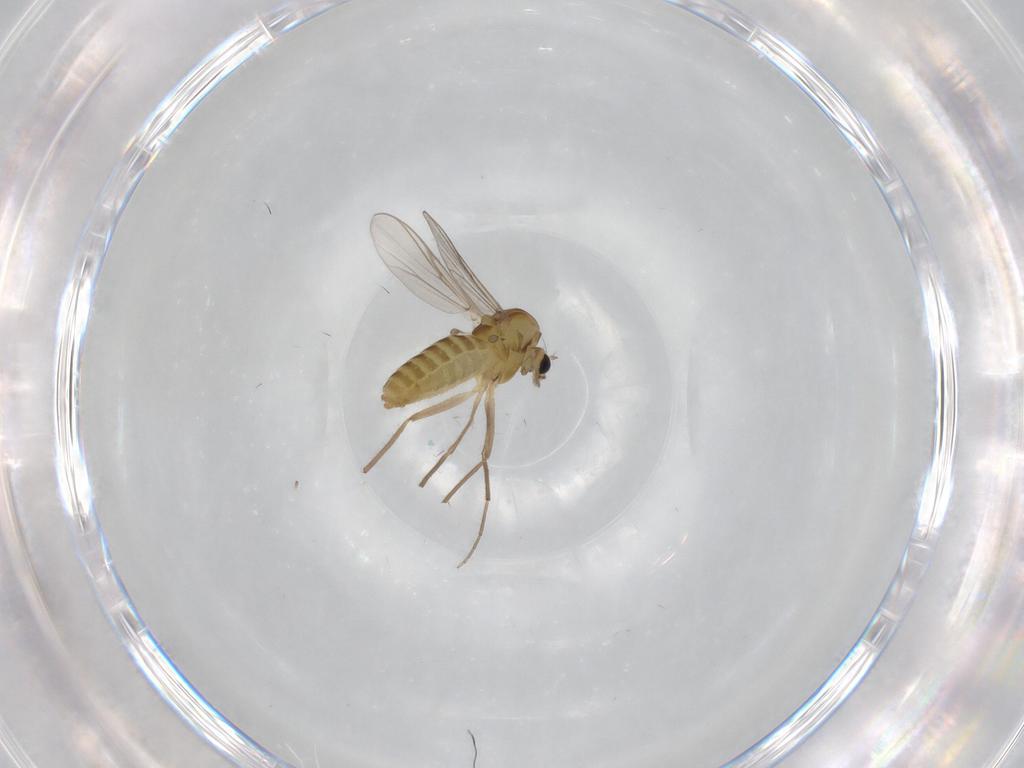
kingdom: Animalia
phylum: Arthropoda
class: Insecta
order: Diptera
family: Chironomidae
